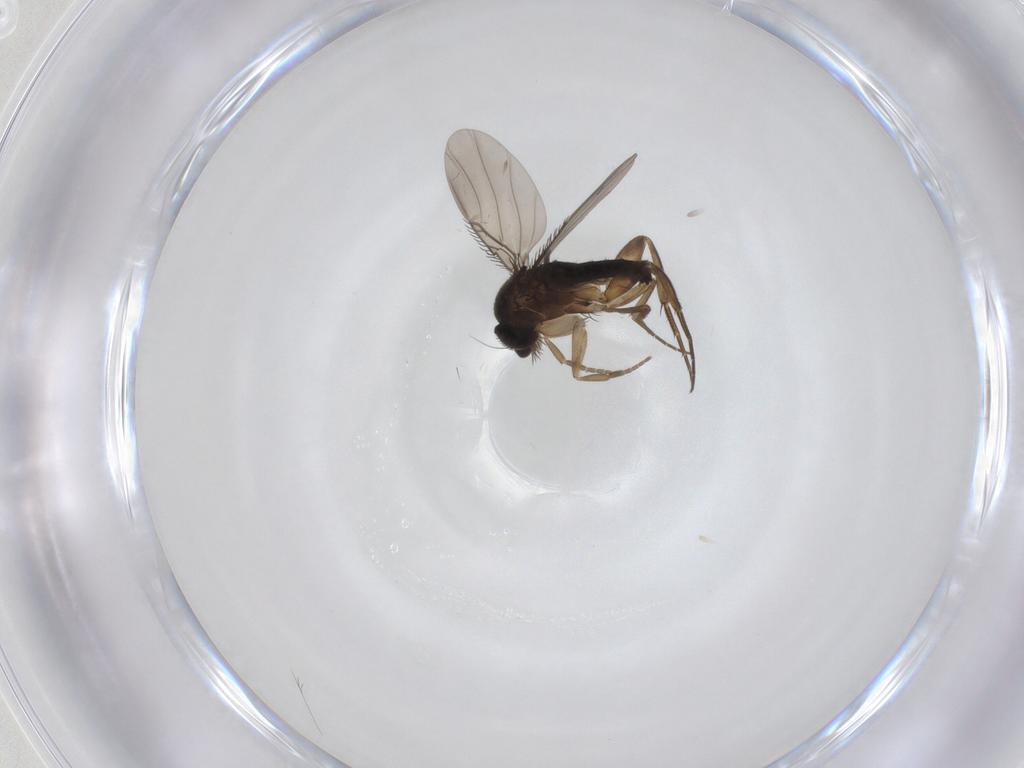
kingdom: Animalia
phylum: Arthropoda
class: Insecta
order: Diptera
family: Phoridae
